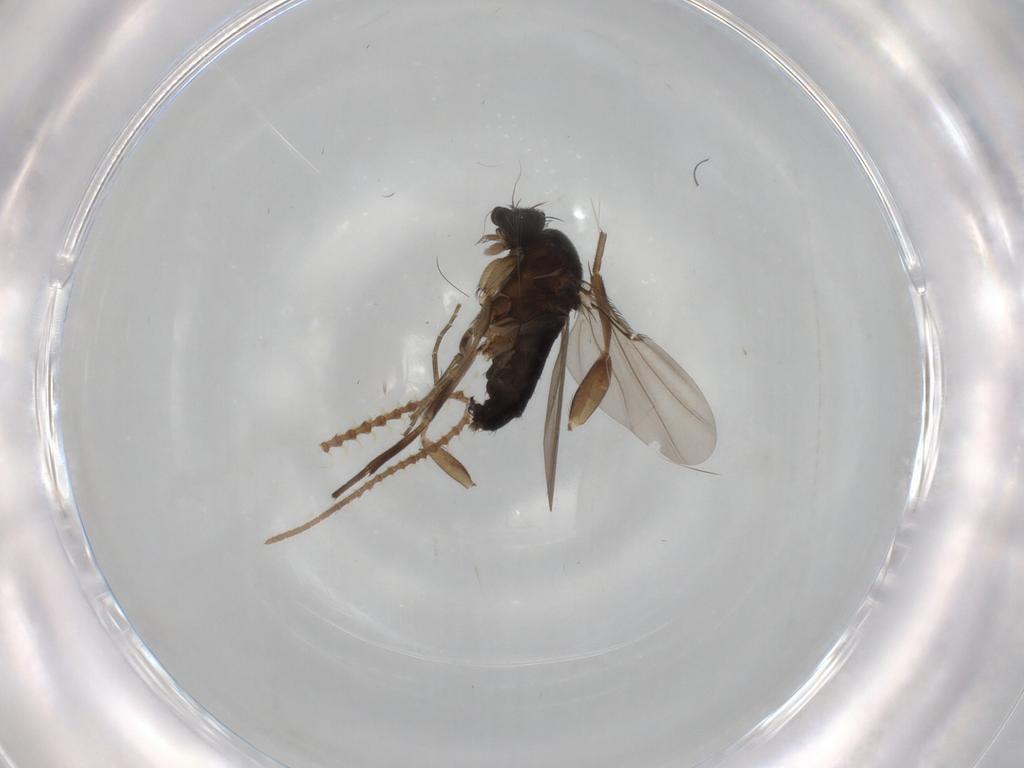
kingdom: Animalia
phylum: Arthropoda
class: Insecta
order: Diptera
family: Phoridae
